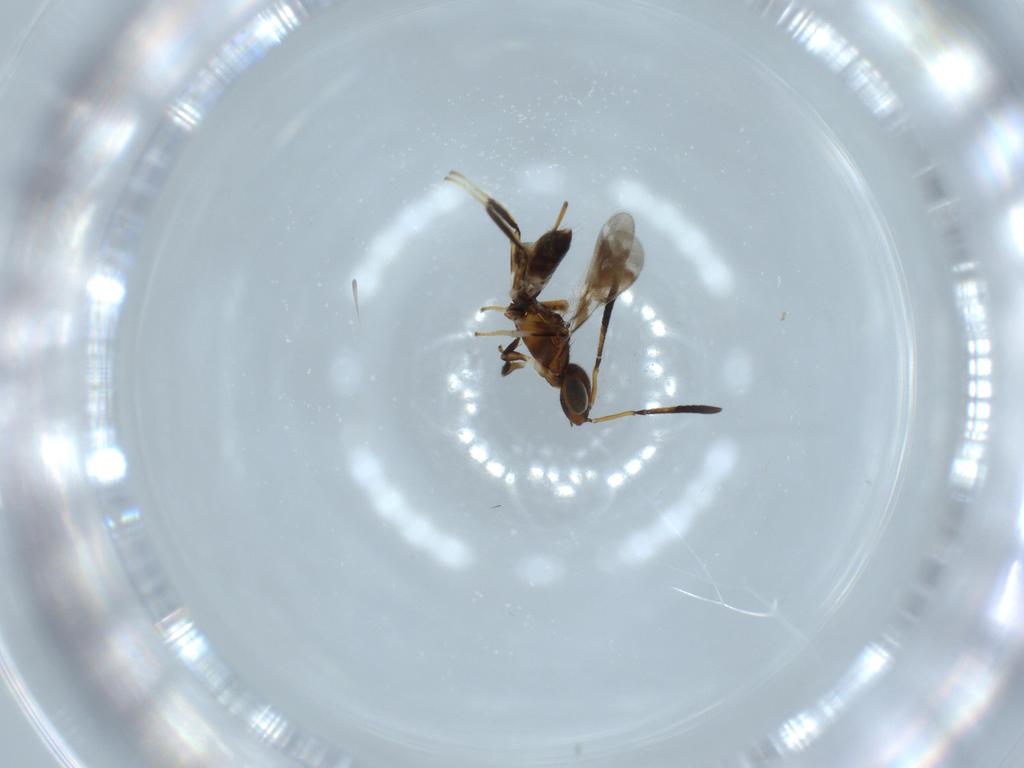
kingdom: Animalia
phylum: Arthropoda
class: Insecta
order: Hymenoptera
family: Eupelmidae
